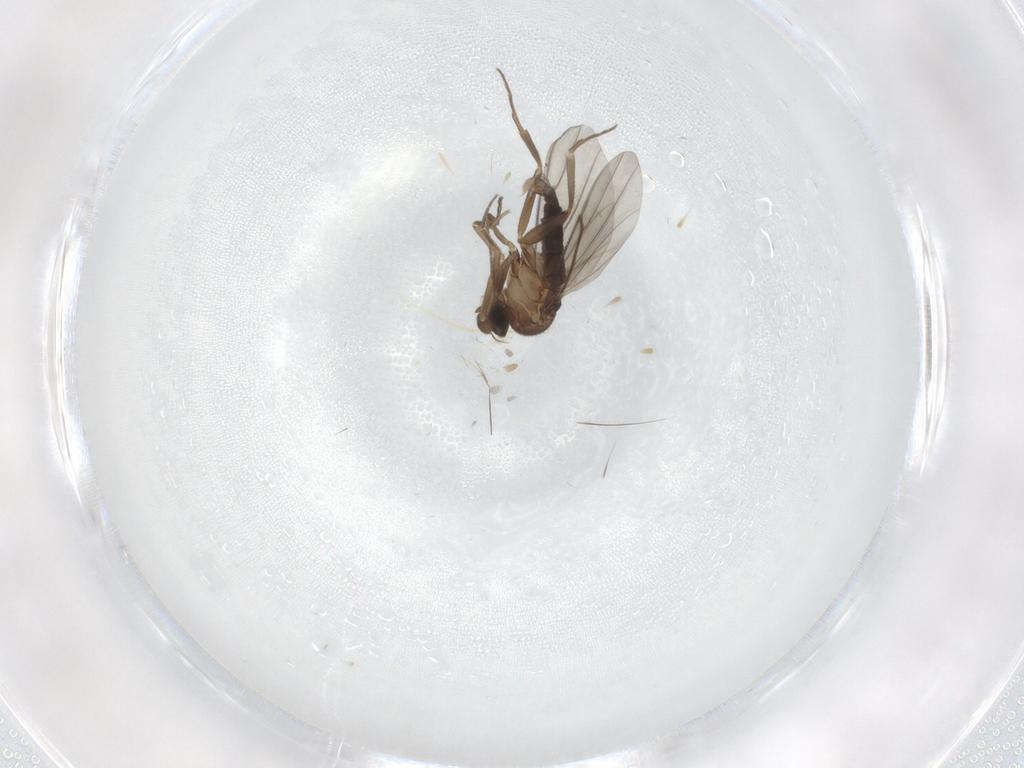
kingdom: Animalia
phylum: Arthropoda
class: Insecta
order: Diptera
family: Phoridae
